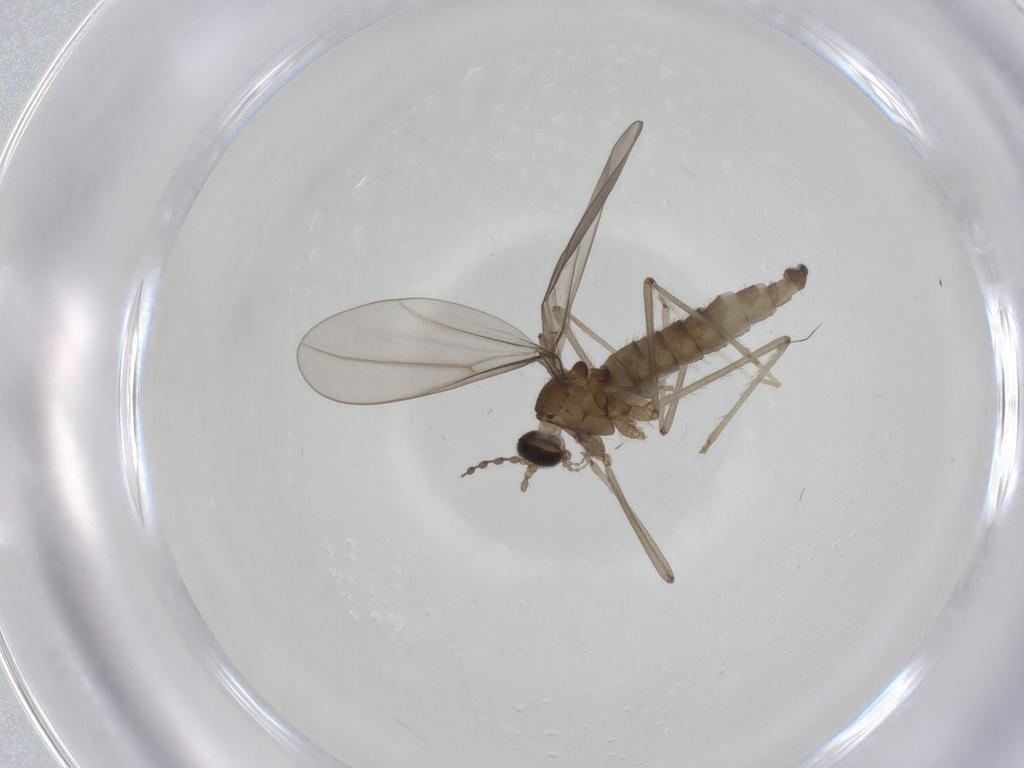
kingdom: Animalia
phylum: Arthropoda
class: Insecta
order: Diptera
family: Cecidomyiidae
